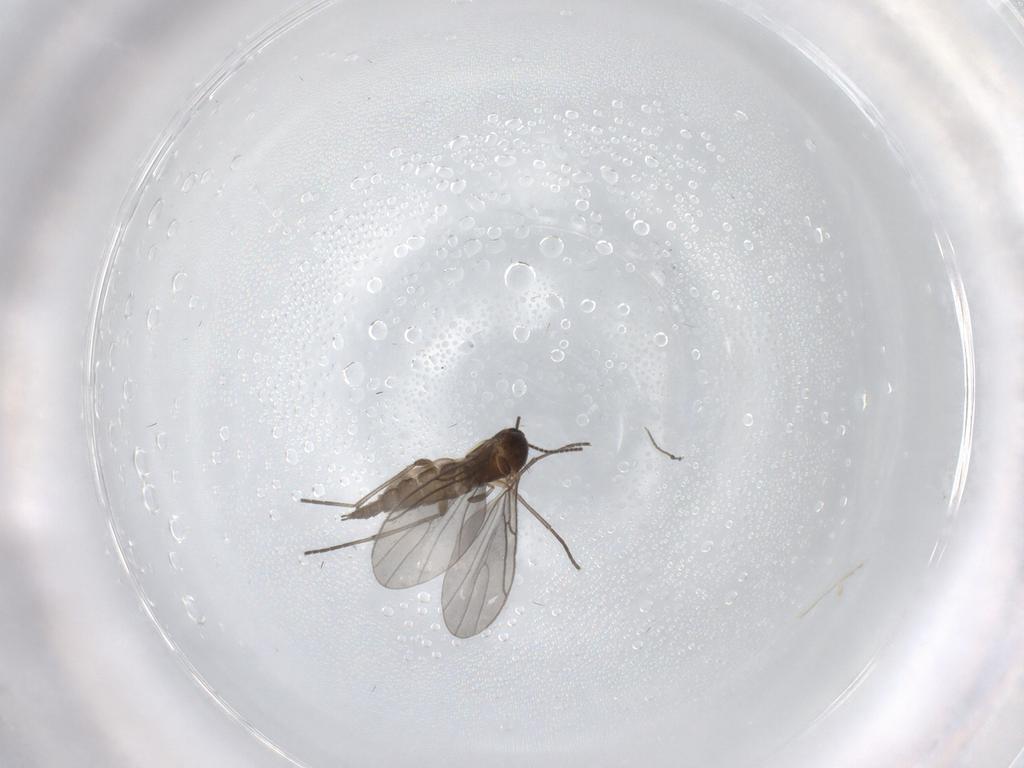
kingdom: Animalia
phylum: Arthropoda
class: Insecta
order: Diptera
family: Sciaridae
